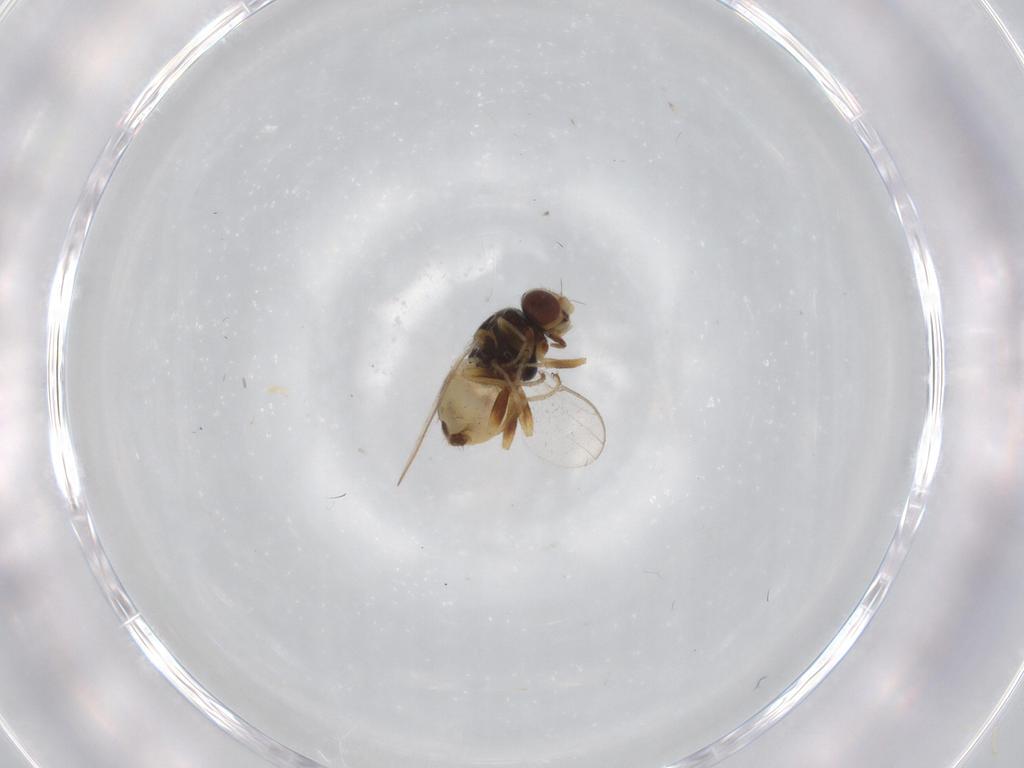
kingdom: Animalia
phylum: Arthropoda
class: Insecta
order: Diptera
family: Chloropidae
